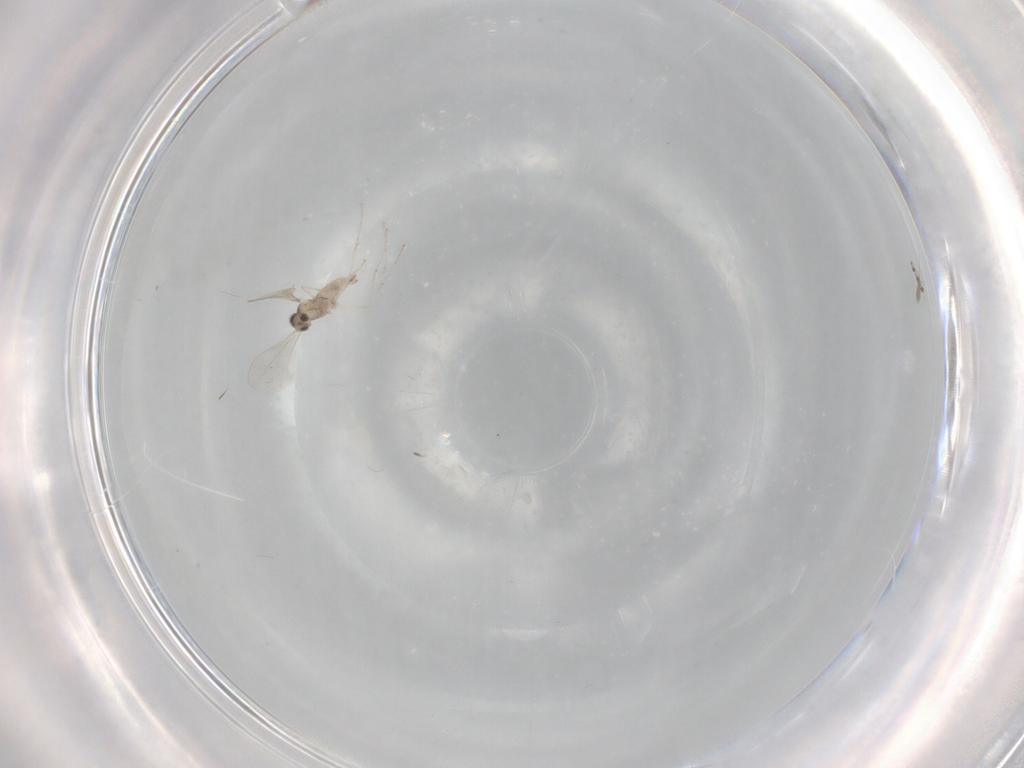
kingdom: Animalia
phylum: Arthropoda
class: Insecta
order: Diptera
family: Cecidomyiidae
